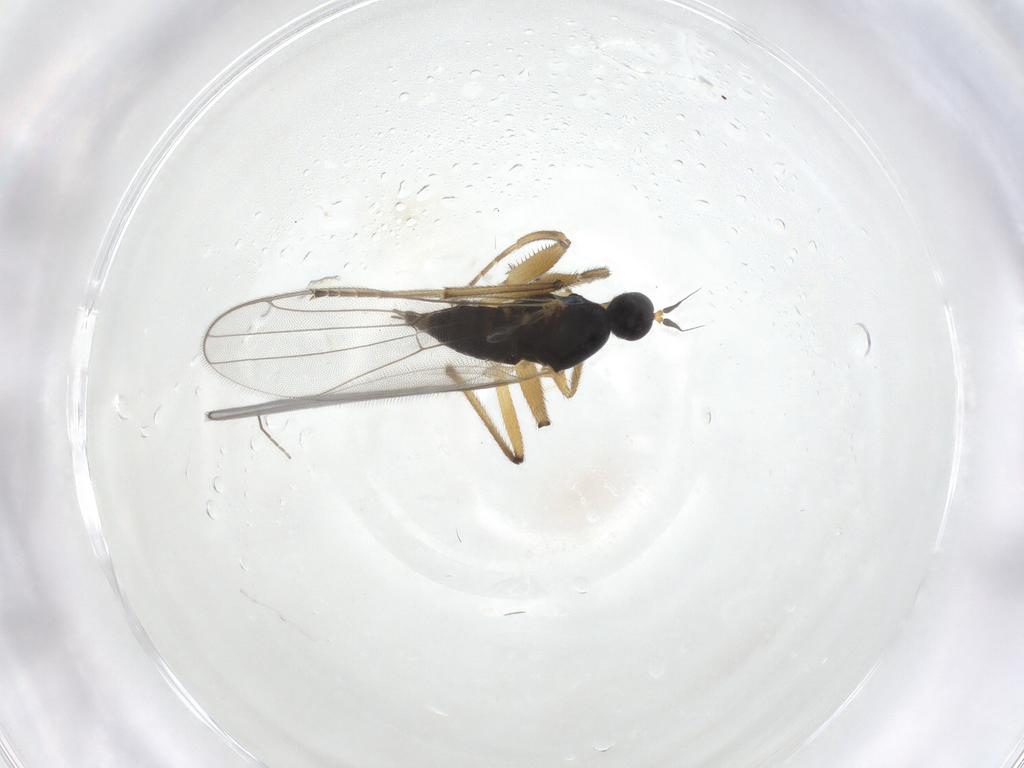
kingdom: Animalia
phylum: Arthropoda
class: Insecta
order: Diptera
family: Hybotidae
